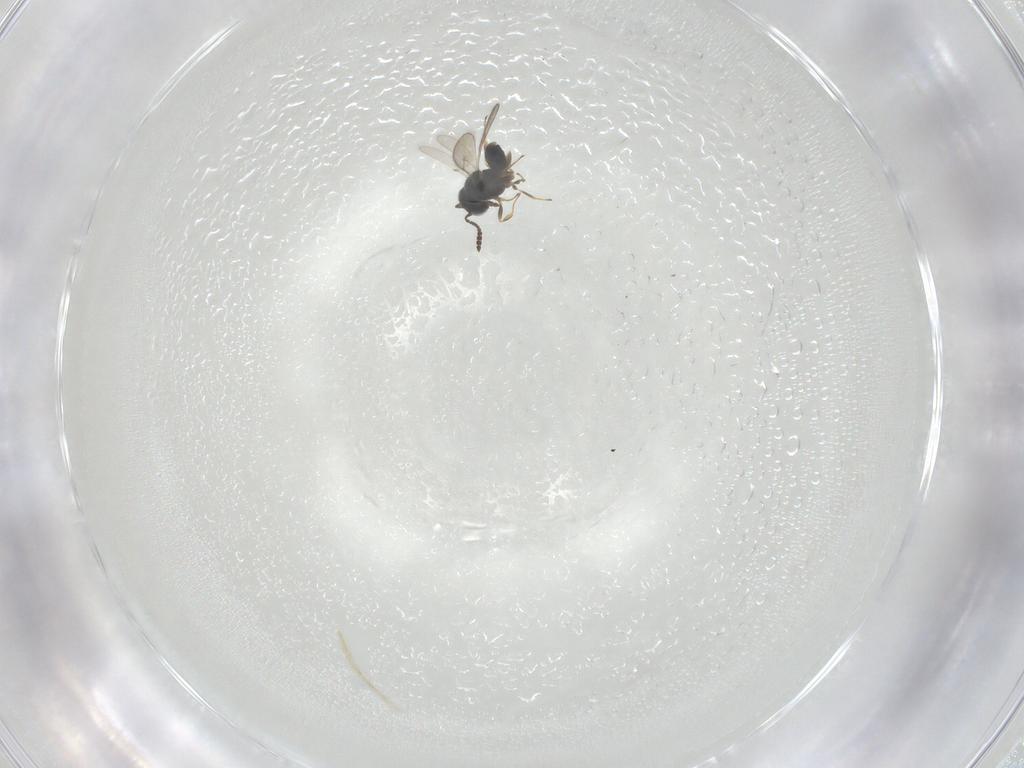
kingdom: Animalia
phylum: Arthropoda
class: Insecta
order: Hymenoptera
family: Scelionidae
